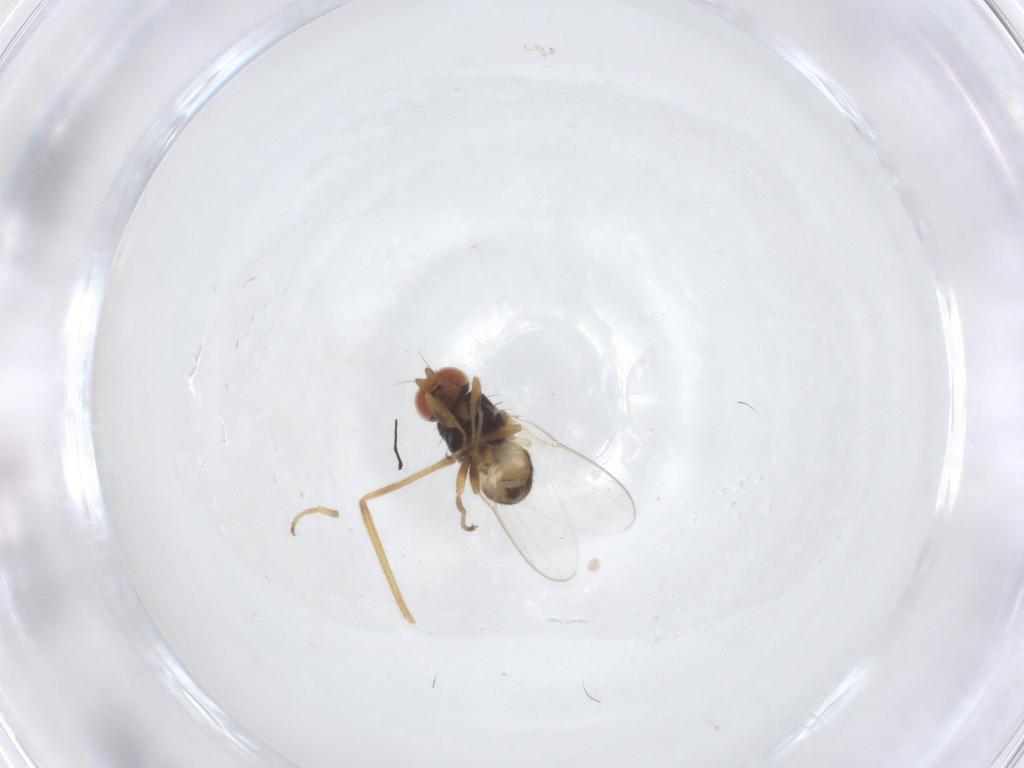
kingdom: Animalia
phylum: Arthropoda
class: Insecta
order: Diptera
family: Chloropidae
